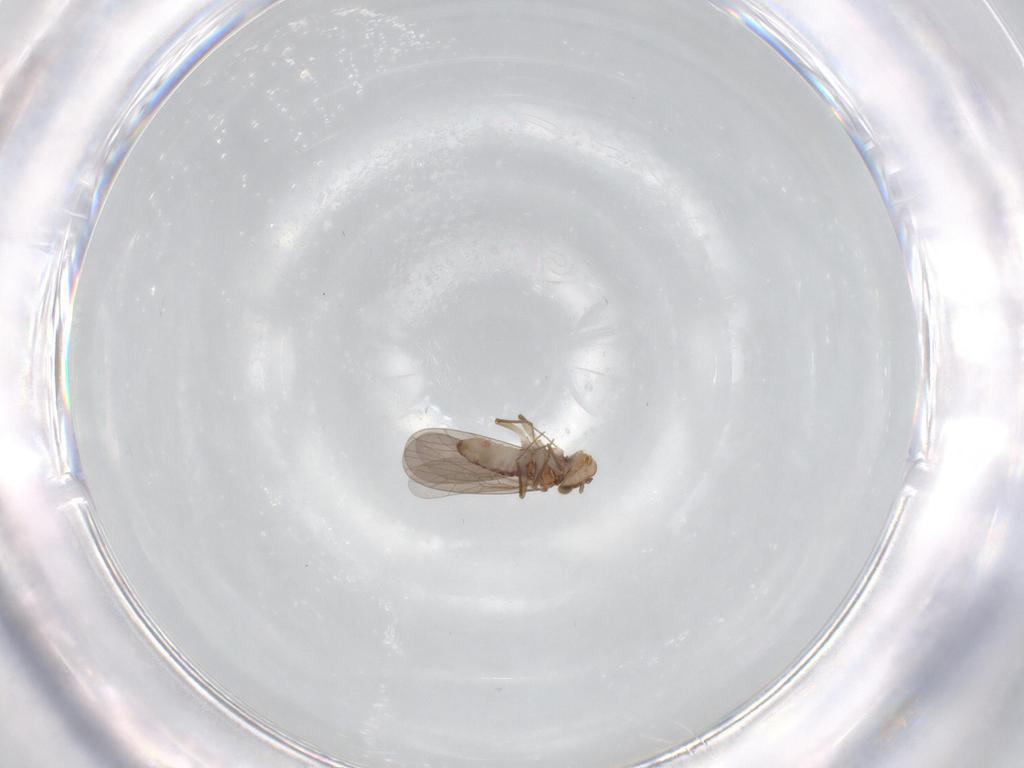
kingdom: Animalia
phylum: Arthropoda
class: Insecta
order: Psocodea
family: Lepidopsocidae
